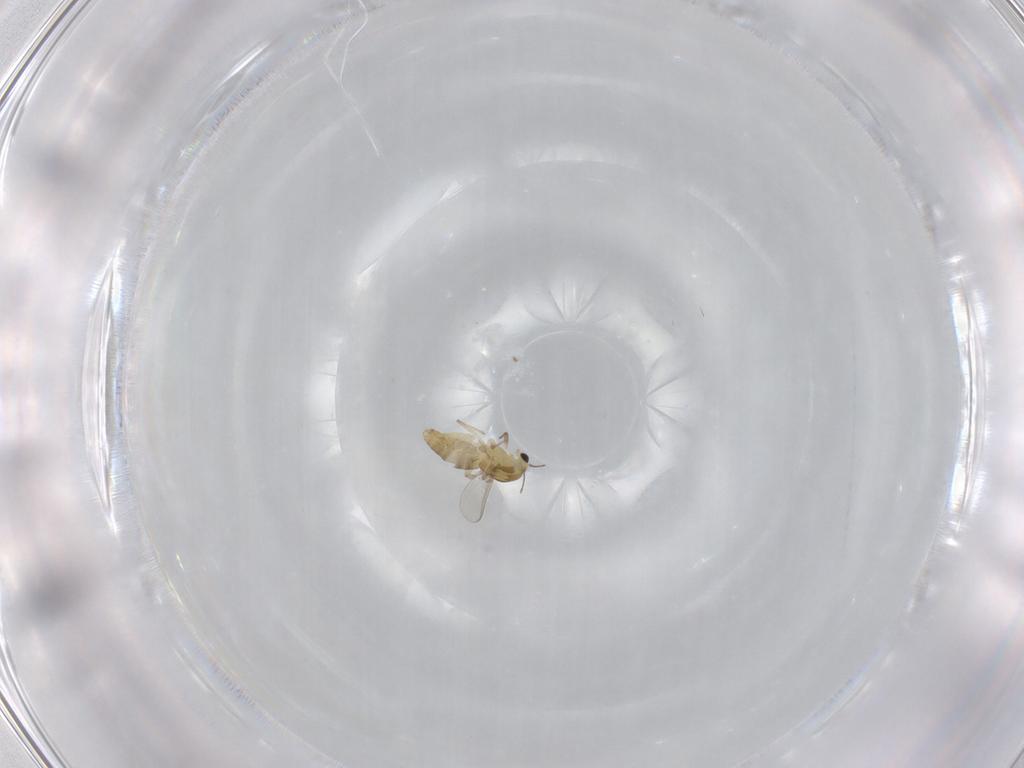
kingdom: Animalia
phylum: Arthropoda
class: Insecta
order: Diptera
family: Chironomidae
